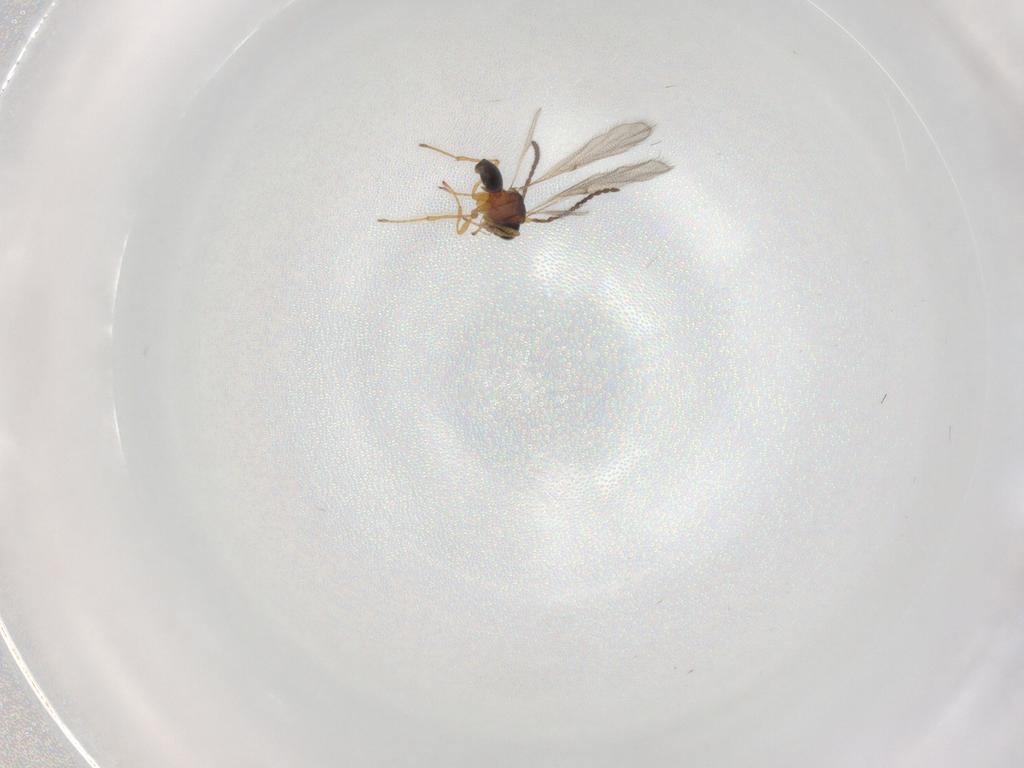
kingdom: Animalia
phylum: Arthropoda
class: Insecta
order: Hymenoptera
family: Diapriidae
